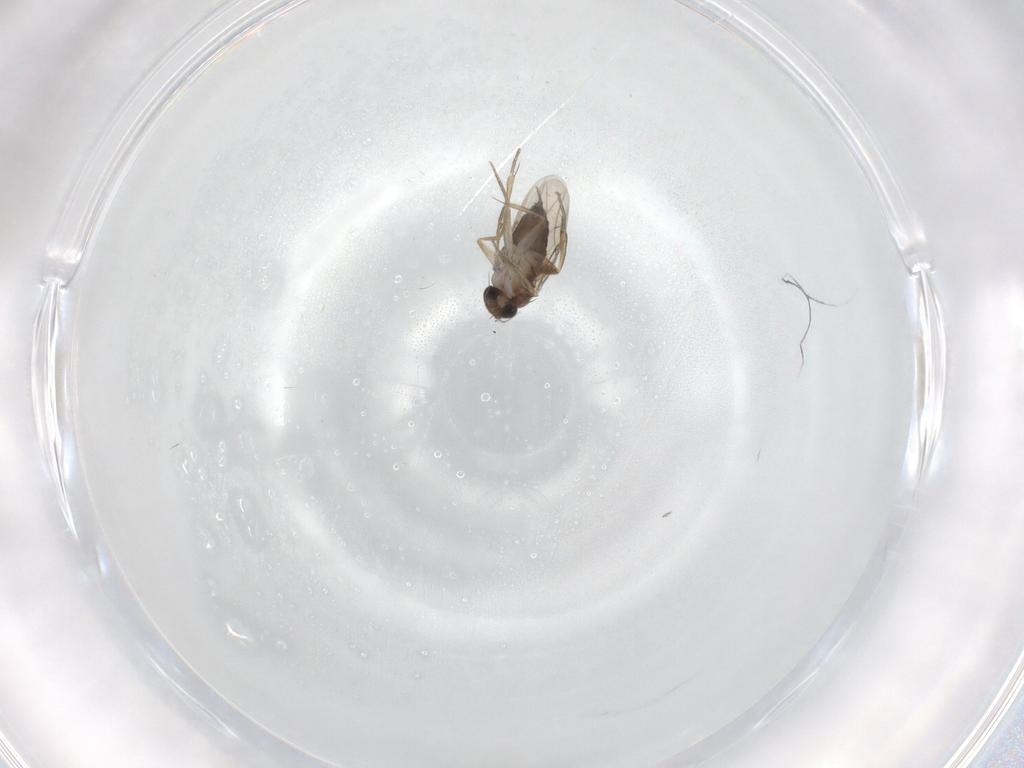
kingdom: Animalia
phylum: Arthropoda
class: Insecta
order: Diptera
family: Phoridae
